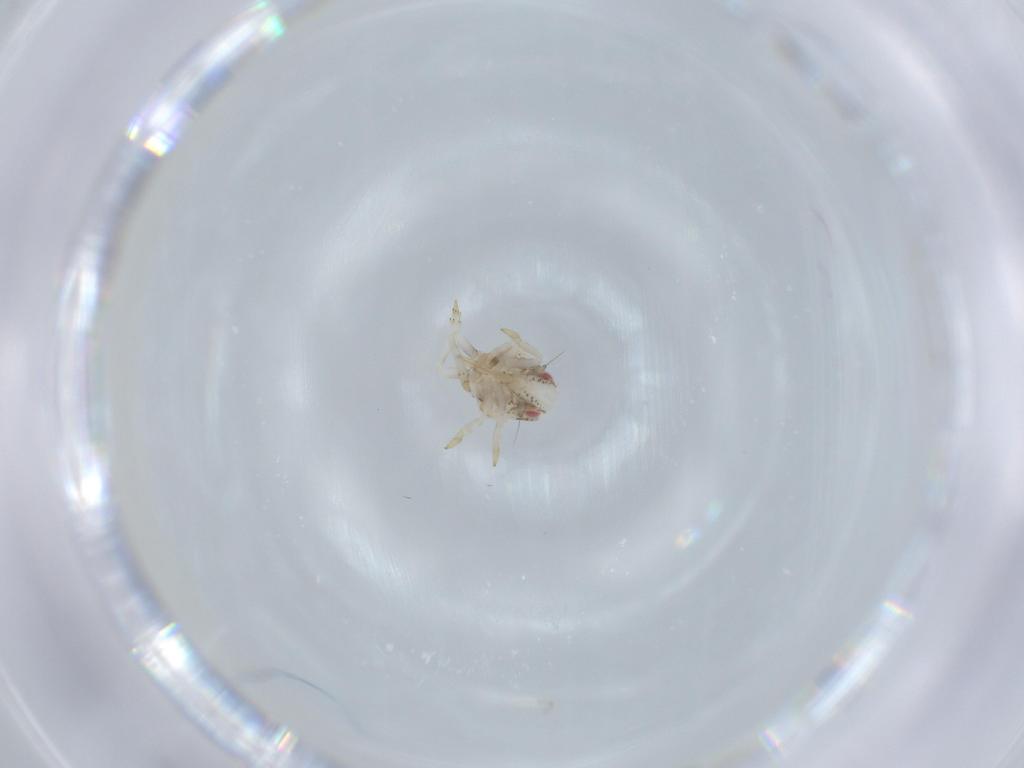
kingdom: Animalia
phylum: Arthropoda
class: Insecta
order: Hemiptera
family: Acanaloniidae
